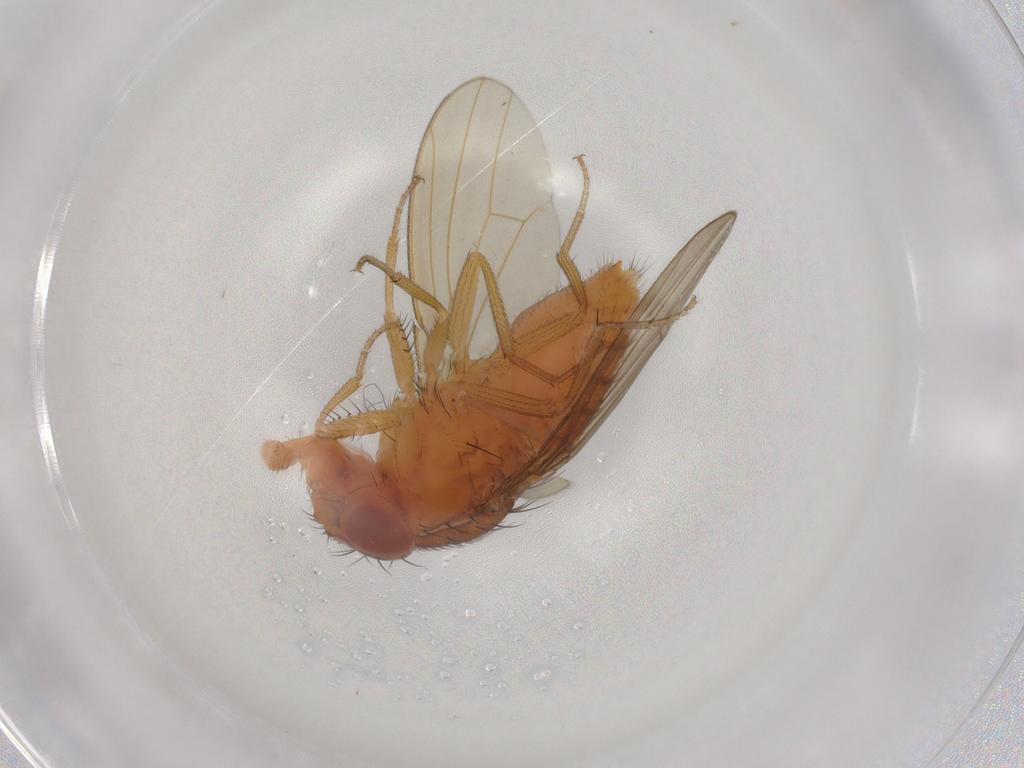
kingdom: Animalia
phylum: Arthropoda
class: Insecta
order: Diptera
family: Drosophilidae
